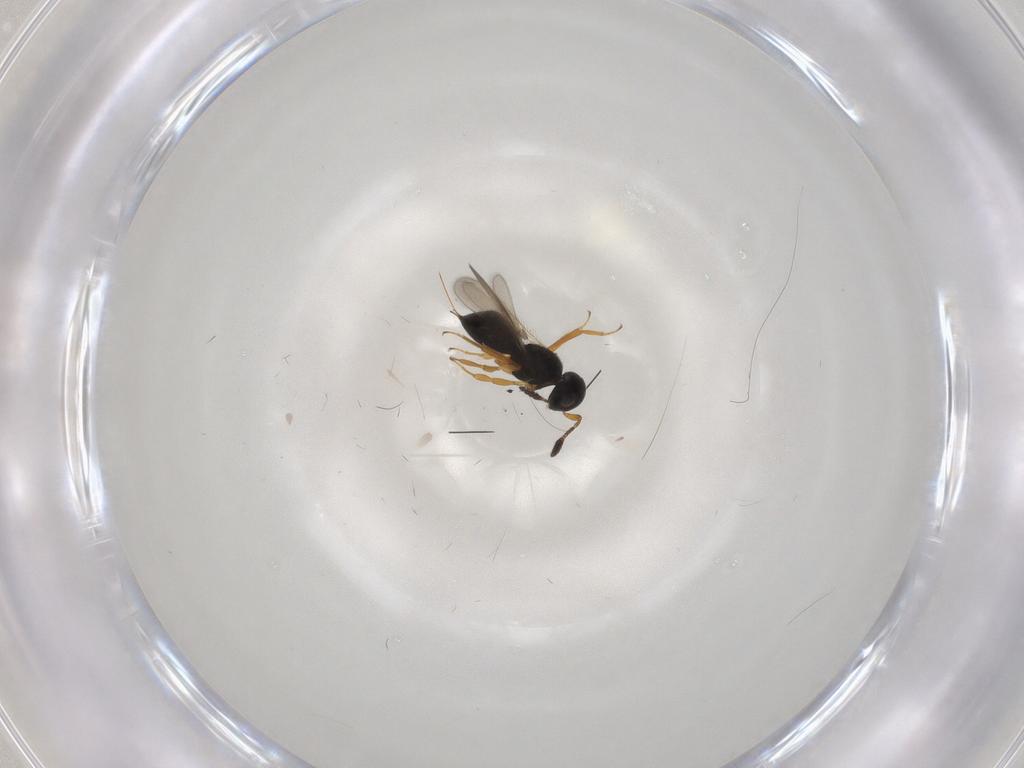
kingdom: Animalia
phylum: Arthropoda
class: Insecta
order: Hymenoptera
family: Scelionidae
